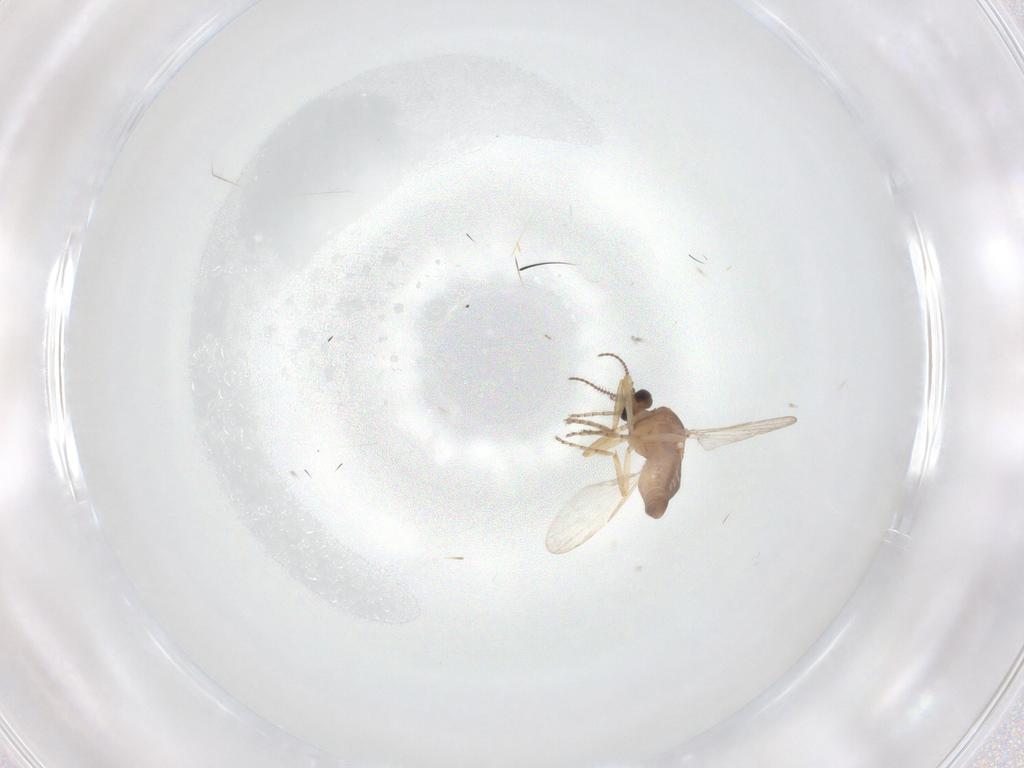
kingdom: Animalia
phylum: Arthropoda
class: Insecta
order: Diptera
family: Ceratopogonidae
